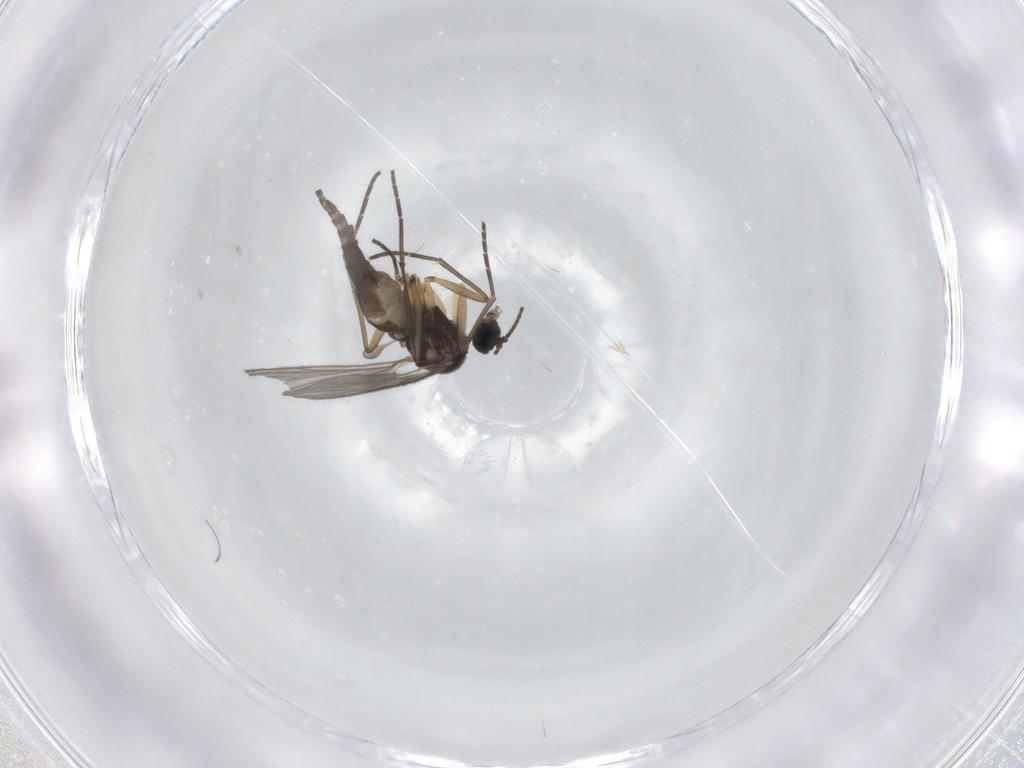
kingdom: Animalia
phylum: Arthropoda
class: Insecta
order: Diptera
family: Sciaridae
